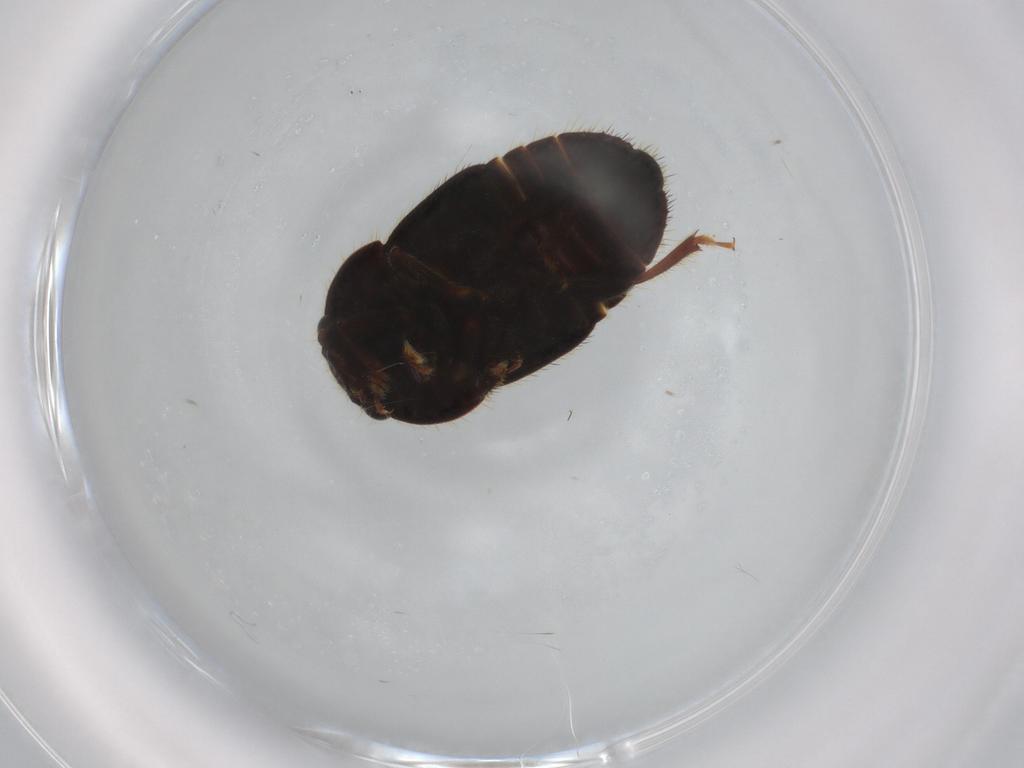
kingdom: Animalia
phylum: Arthropoda
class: Insecta
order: Coleoptera
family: Nitidulidae
